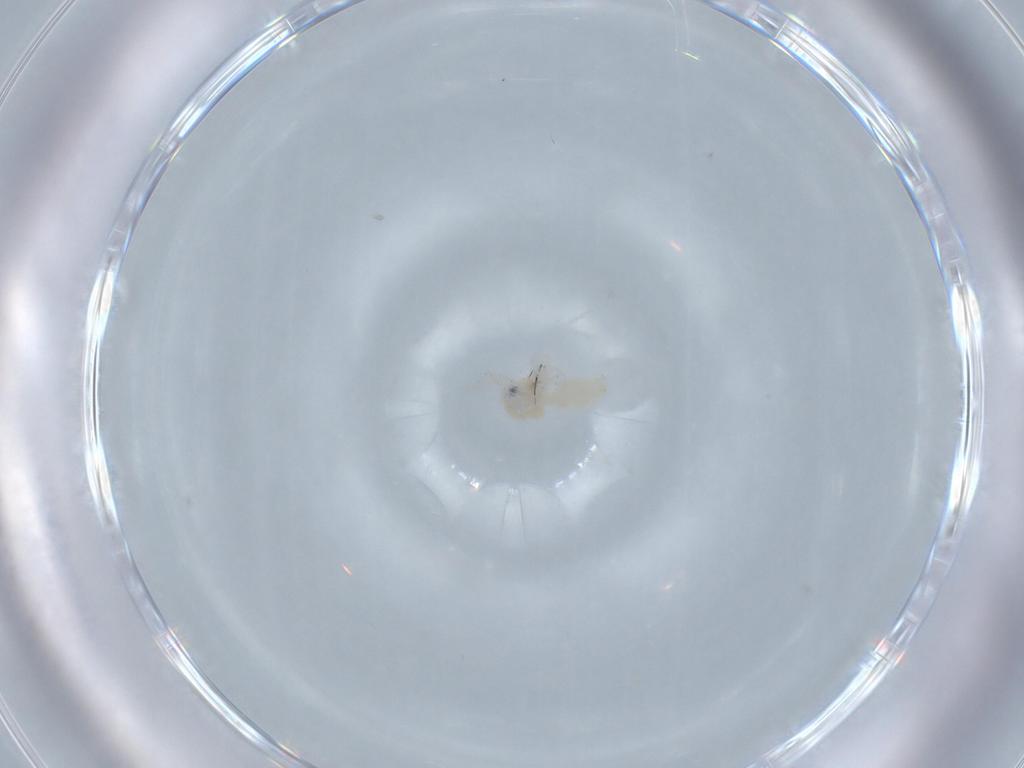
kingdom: Animalia
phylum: Arthropoda
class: Insecta
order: Hemiptera
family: Aleyrodidae
